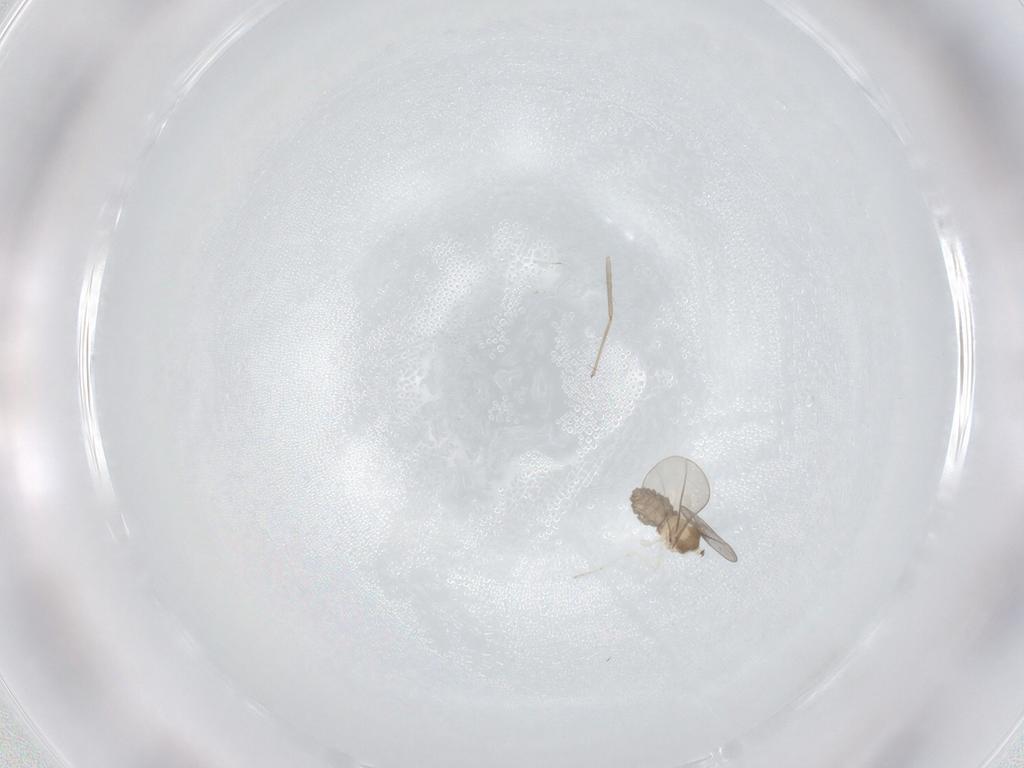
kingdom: Animalia
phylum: Arthropoda
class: Insecta
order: Diptera
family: Sciaridae
